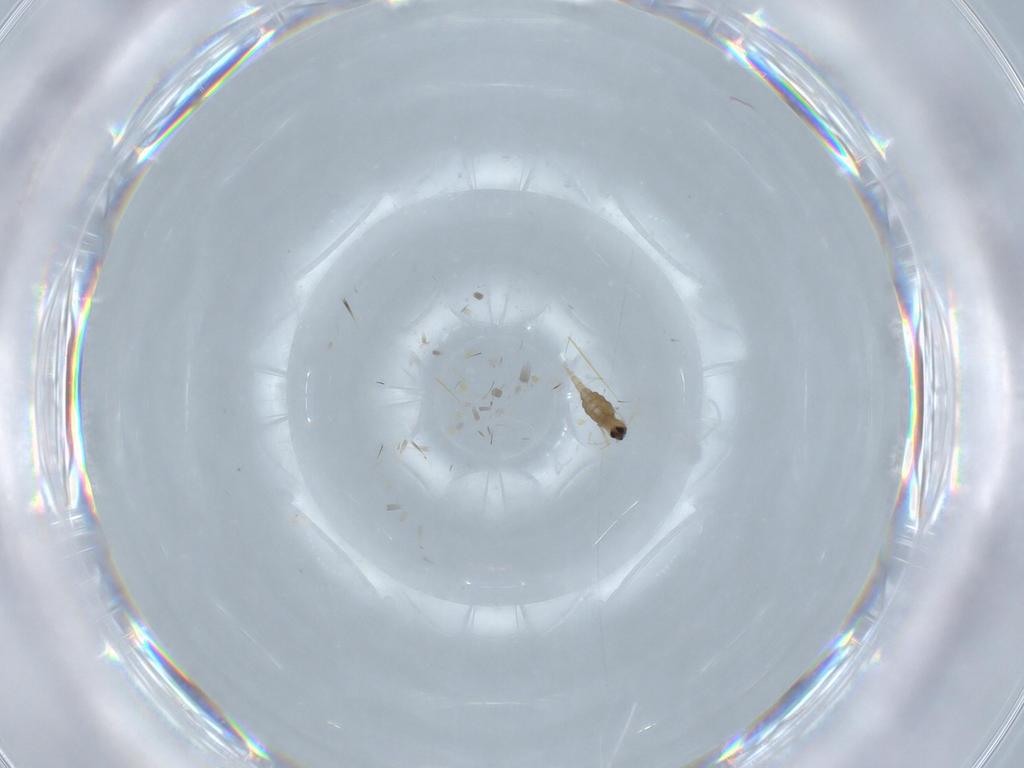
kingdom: Animalia
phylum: Arthropoda
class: Insecta
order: Diptera
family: Cecidomyiidae
